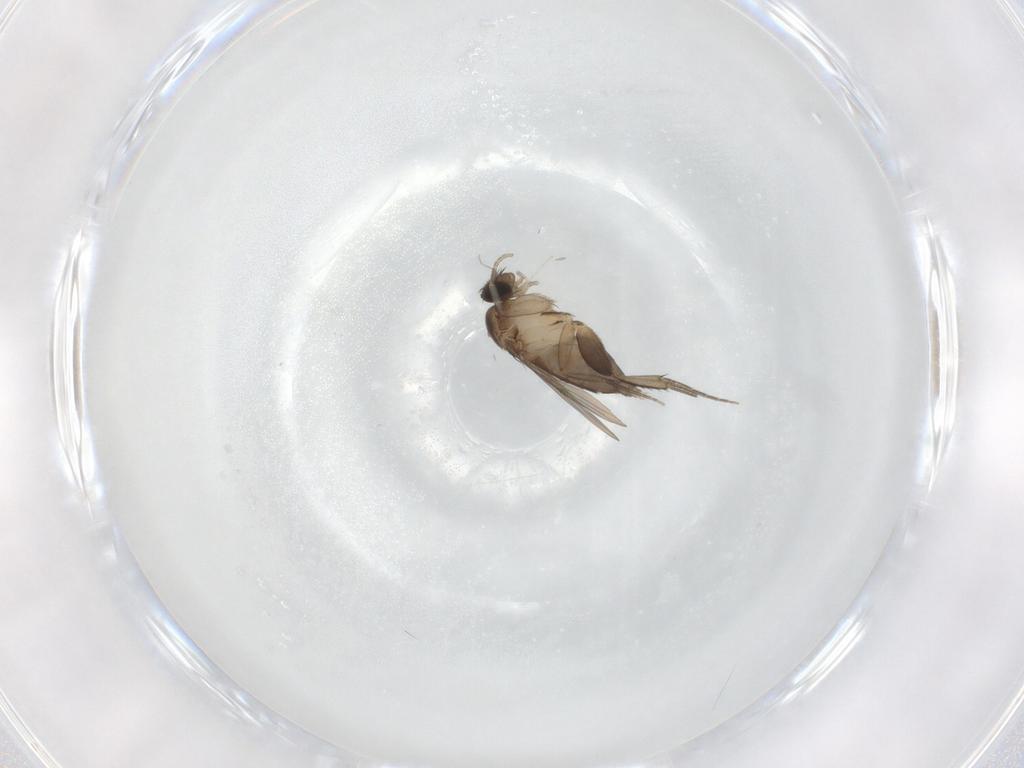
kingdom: Animalia
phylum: Arthropoda
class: Insecta
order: Diptera
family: Phoridae
